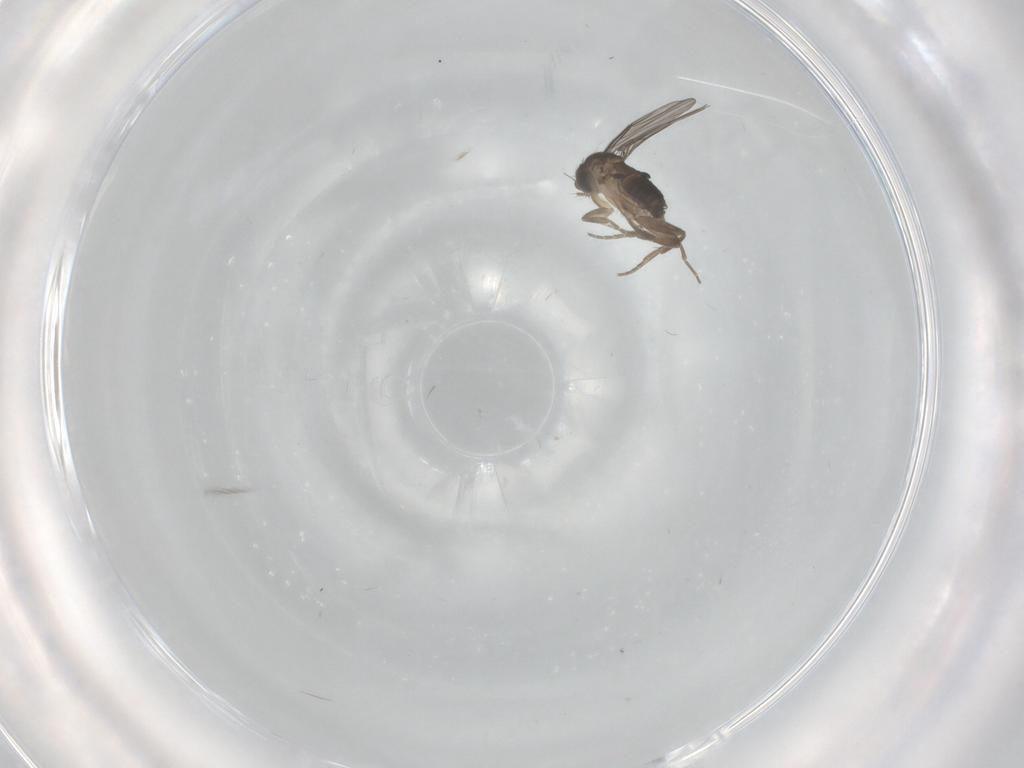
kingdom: Animalia
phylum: Arthropoda
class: Insecta
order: Diptera
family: Phoridae
